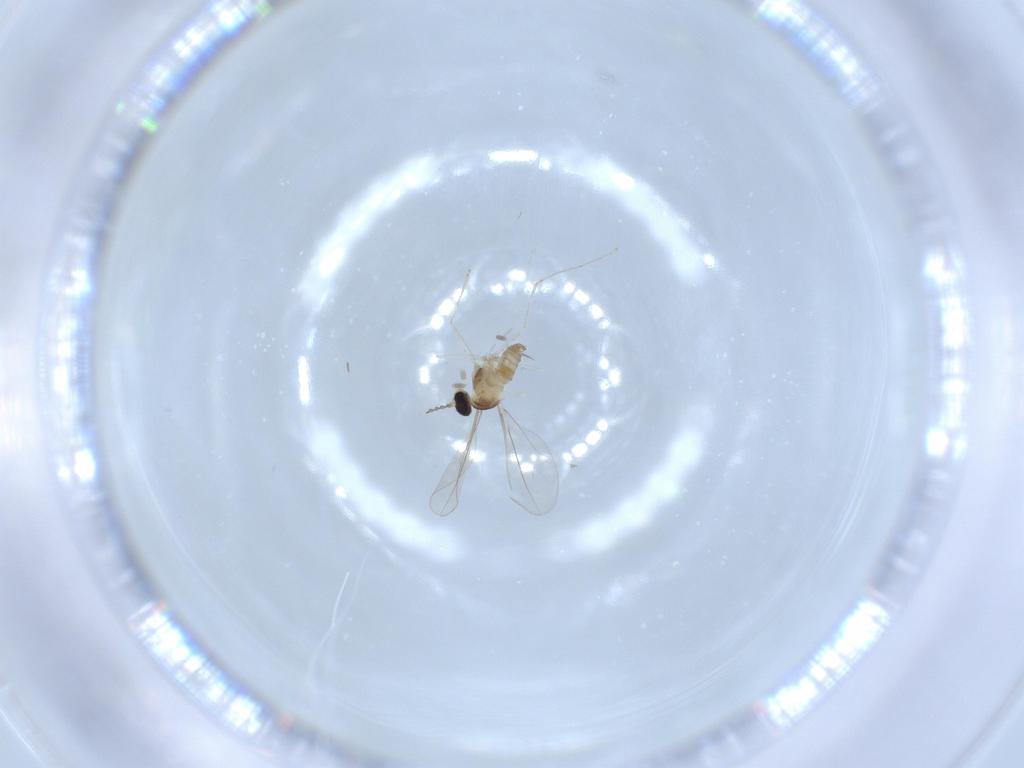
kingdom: Animalia
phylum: Arthropoda
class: Insecta
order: Diptera
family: Cecidomyiidae
